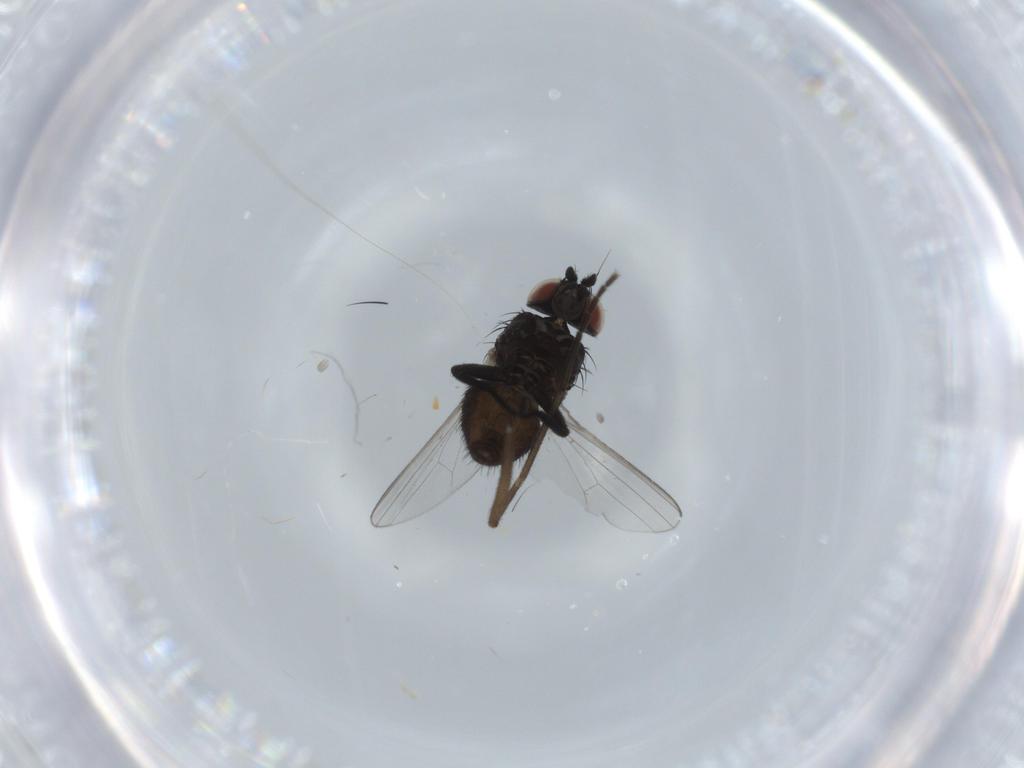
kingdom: Animalia
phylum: Arthropoda
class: Insecta
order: Diptera
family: Milichiidae
